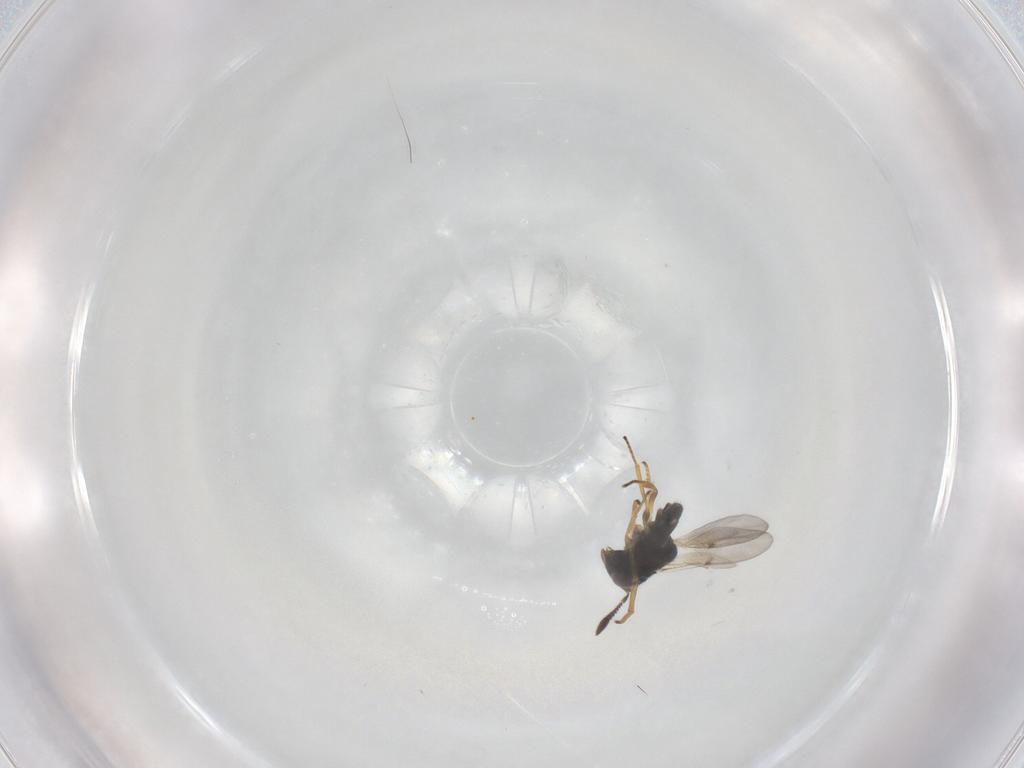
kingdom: Animalia
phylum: Arthropoda
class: Insecta
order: Hymenoptera
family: Encyrtidae
